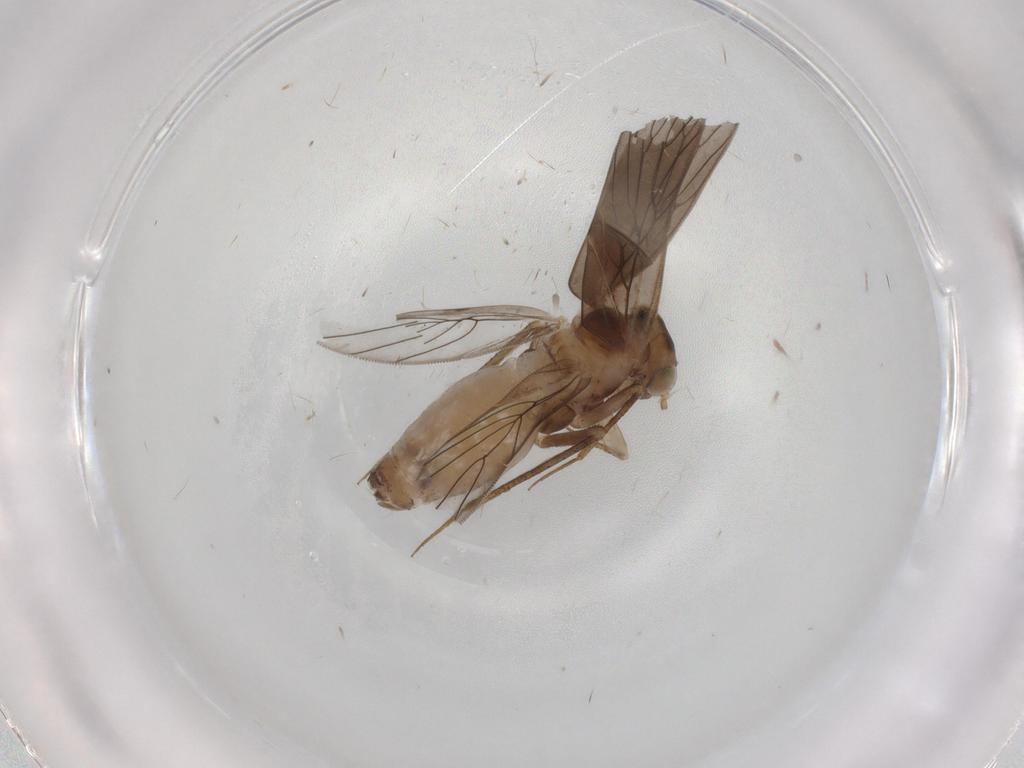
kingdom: Animalia
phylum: Arthropoda
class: Insecta
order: Psocodea
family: Lepidopsocidae
